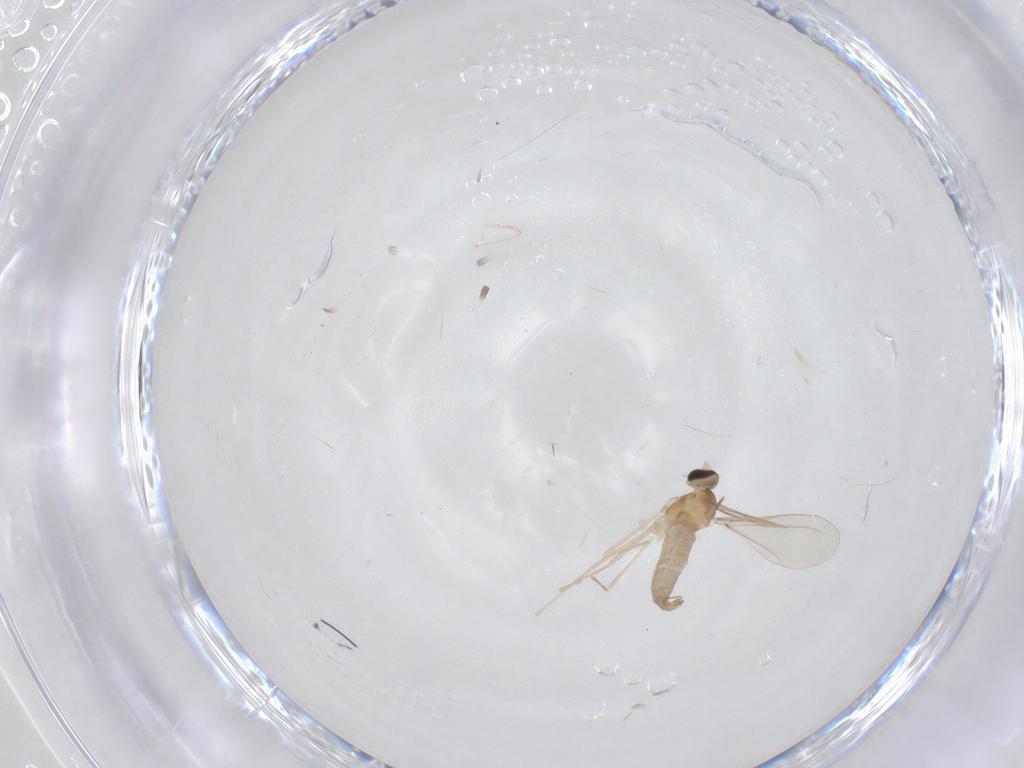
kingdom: Animalia
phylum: Arthropoda
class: Insecta
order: Diptera
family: Cecidomyiidae
